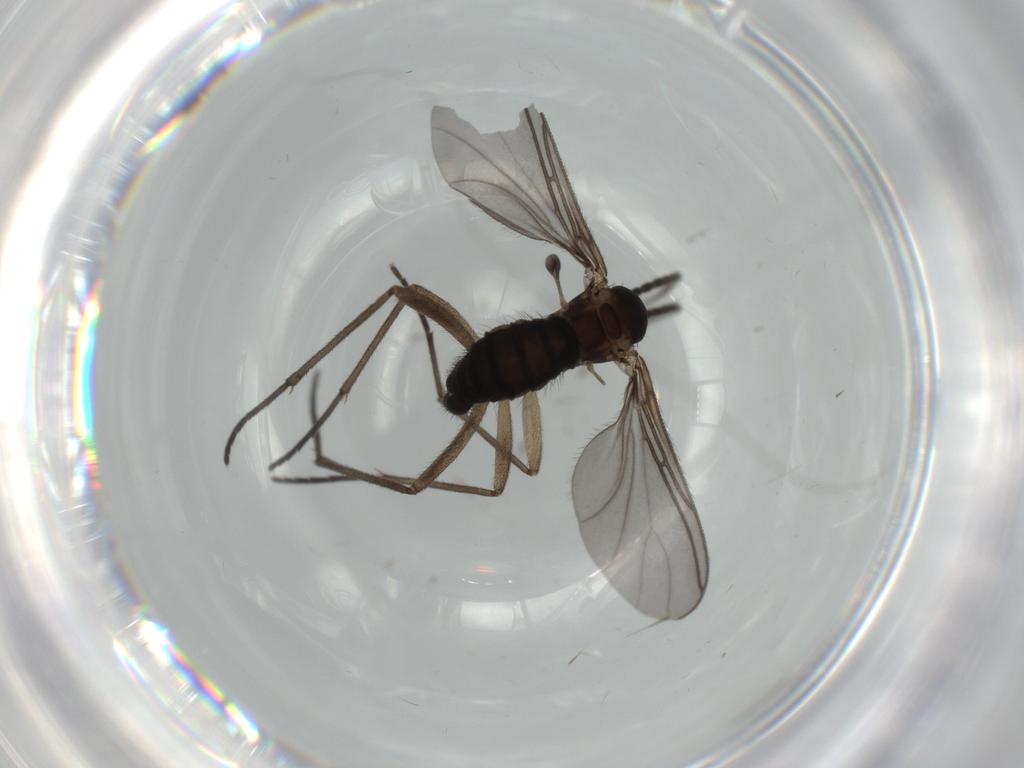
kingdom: Animalia
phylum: Arthropoda
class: Insecta
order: Diptera
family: Sciaridae
